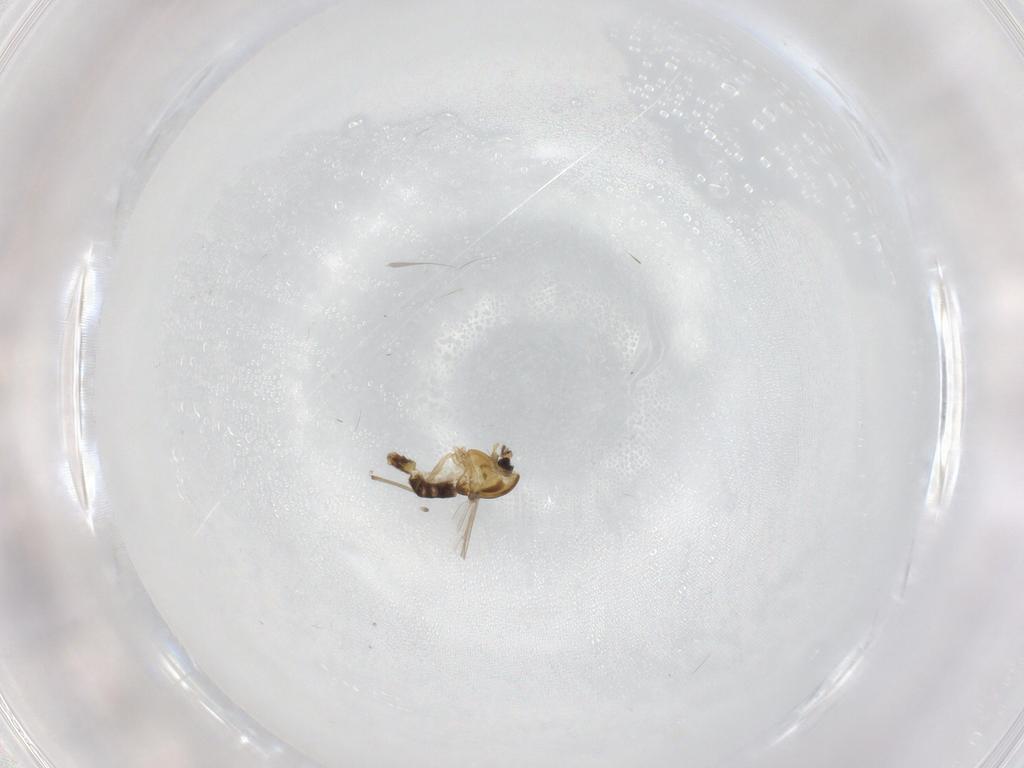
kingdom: Animalia
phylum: Arthropoda
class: Insecta
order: Diptera
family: Chironomidae
